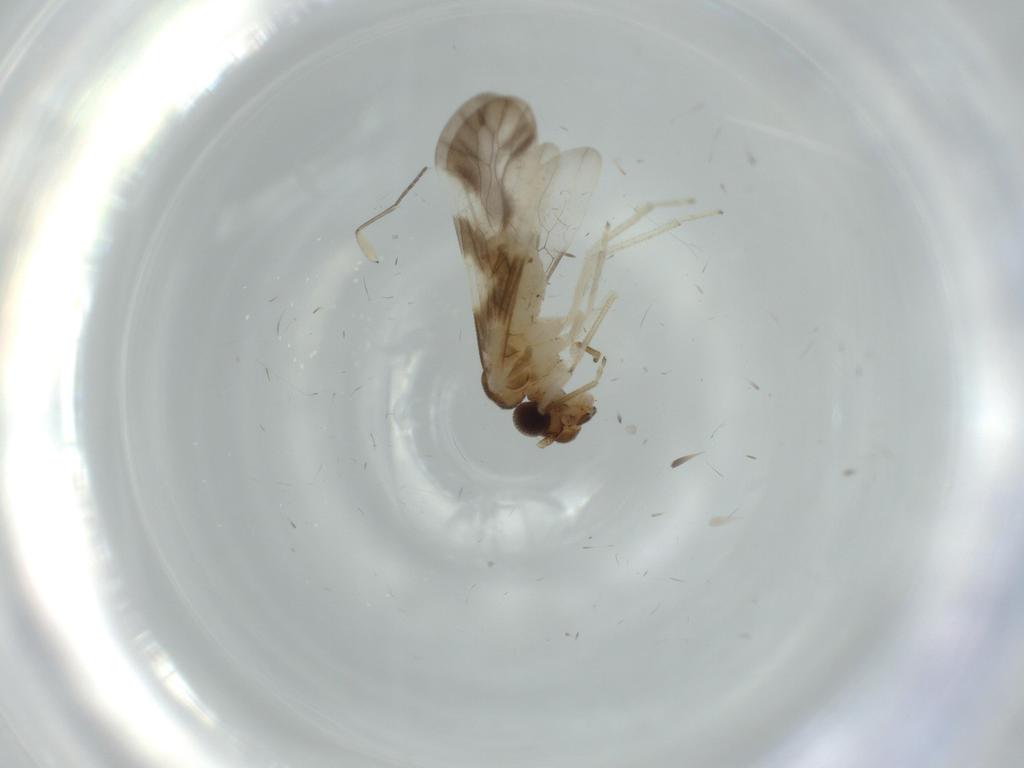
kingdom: Animalia
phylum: Arthropoda
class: Insecta
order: Psocodea
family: Caeciliusidae
